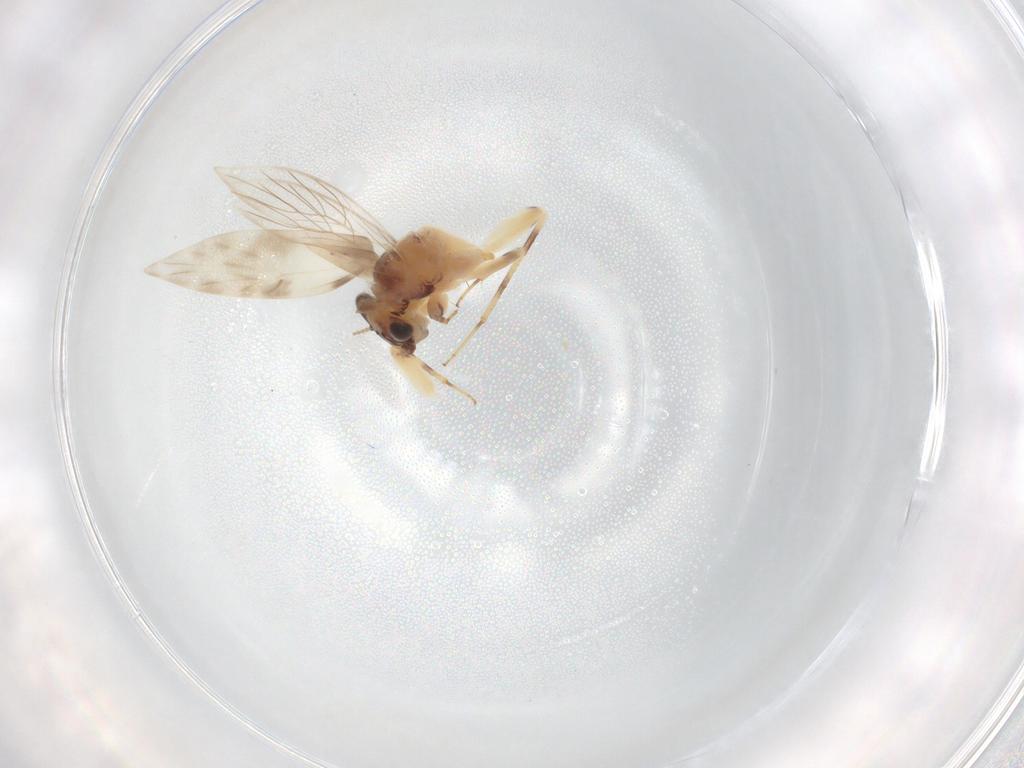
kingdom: Animalia
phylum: Arthropoda
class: Insecta
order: Psocodea
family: Lepidopsocidae
